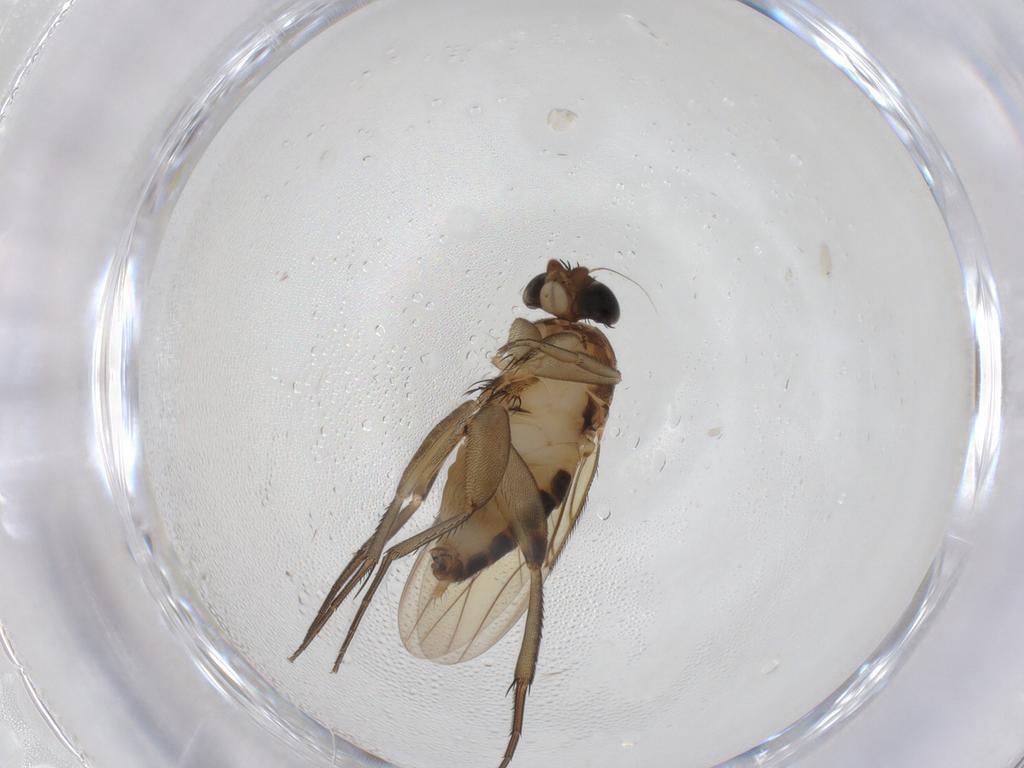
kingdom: Animalia
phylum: Arthropoda
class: Insecta
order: Diptera
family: Phoridae
